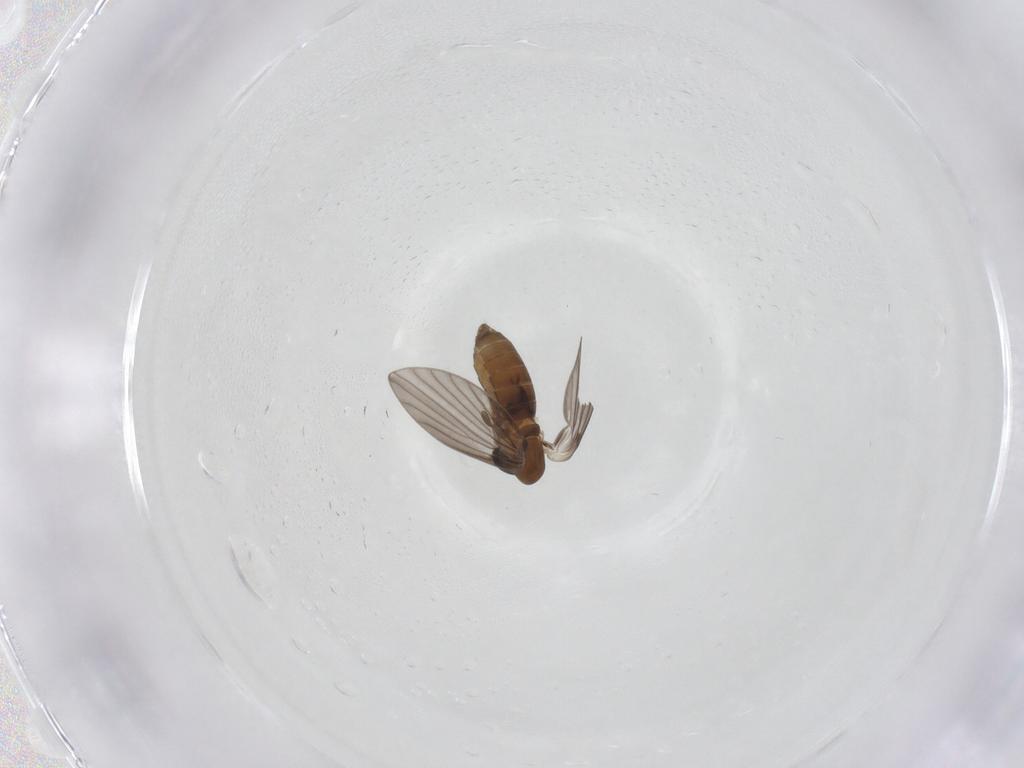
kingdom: Animalia
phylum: Arthropoda
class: Insecta
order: Diptera
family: Psychodidae
